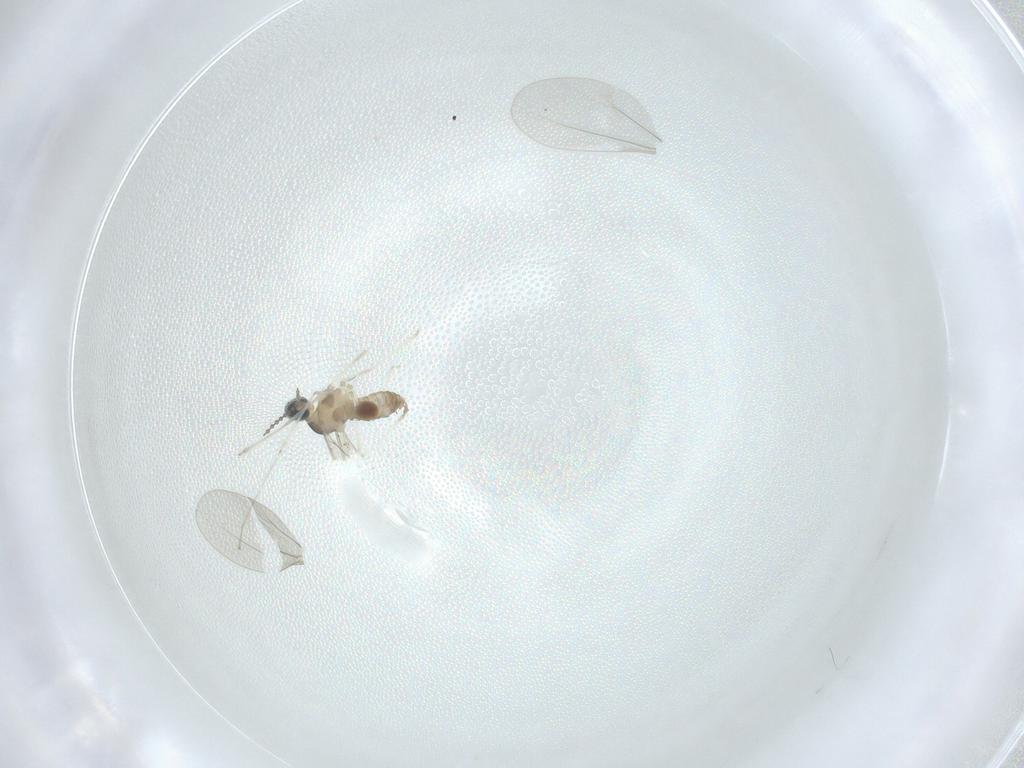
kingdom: Animalia
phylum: Arthropoda
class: Insecta
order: Diptera
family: Cecidomyiidae
